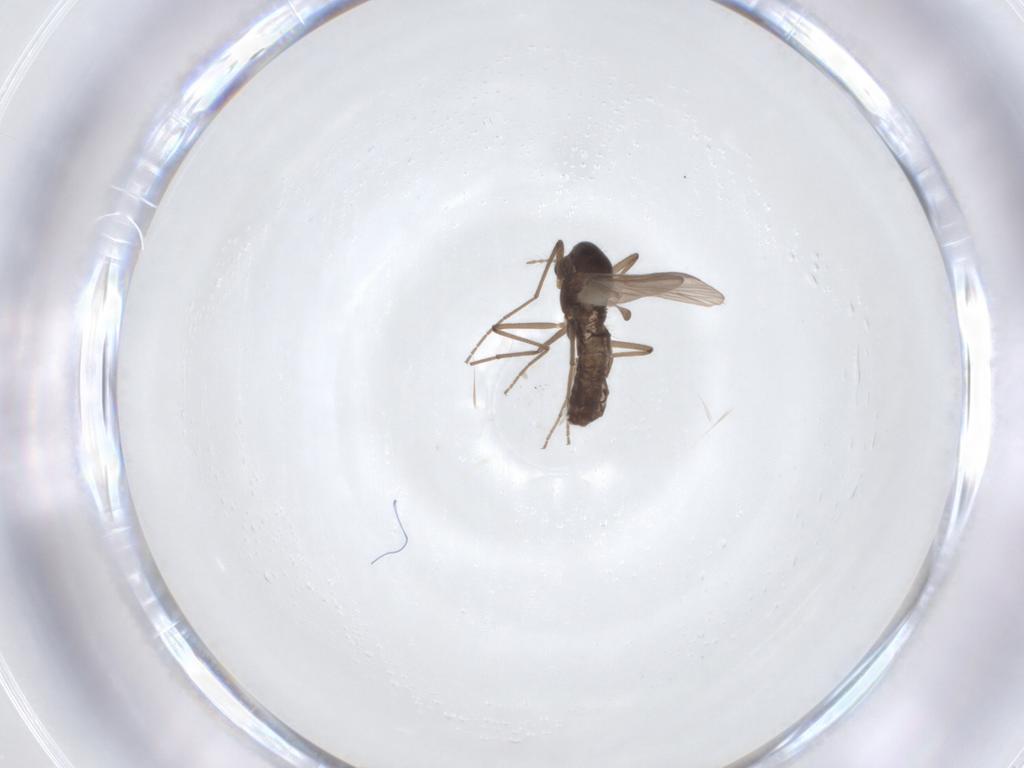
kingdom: Animalia
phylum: Arthropoda
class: Insecta
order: Diptera
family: Chironomidae
